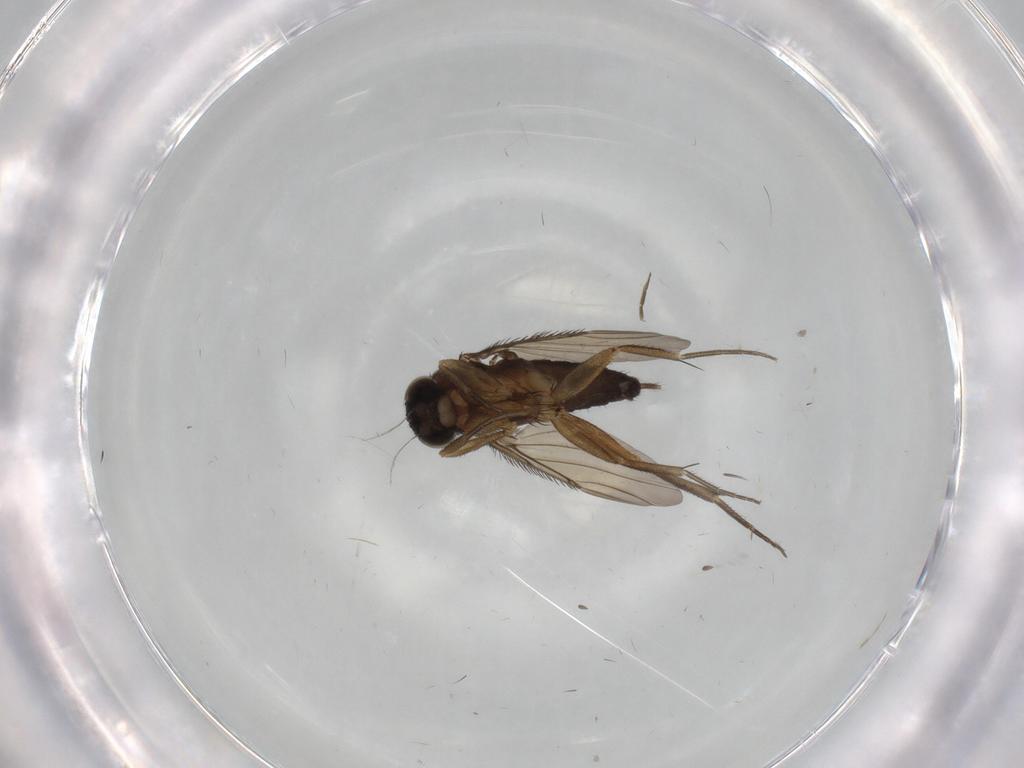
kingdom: Animalia
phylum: Arthropoda
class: Insecta
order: Diptera
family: Phoridae
